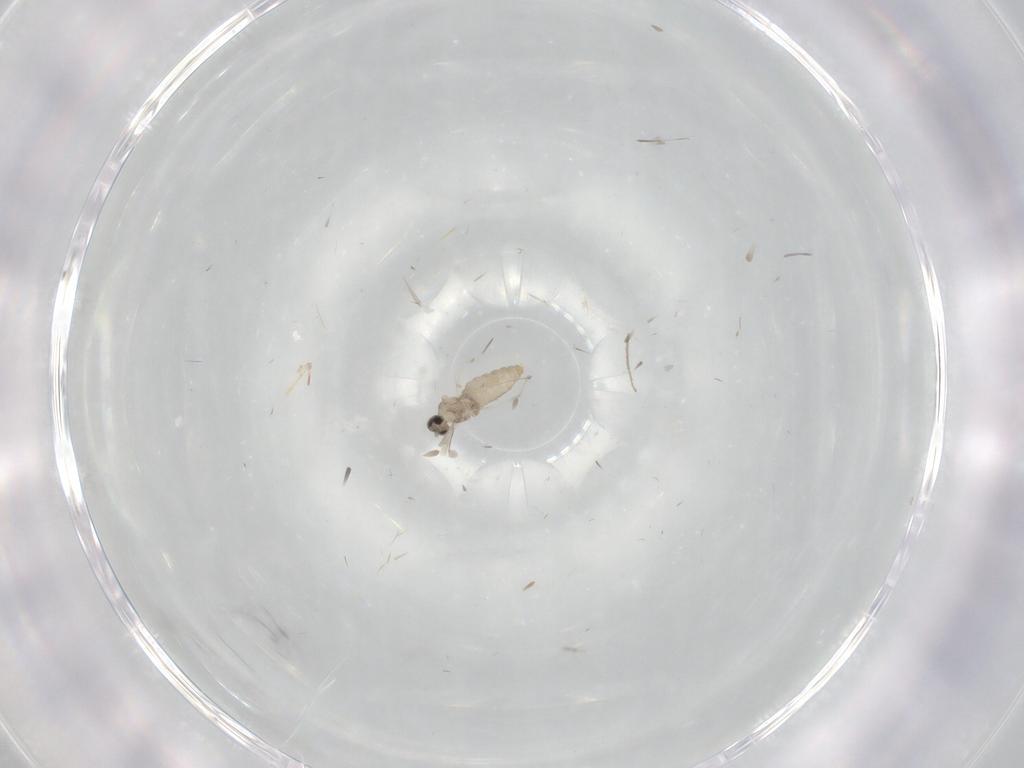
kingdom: Animalia
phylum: Arthropoda
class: Insecta
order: Diptera
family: Cecidomyiidae
